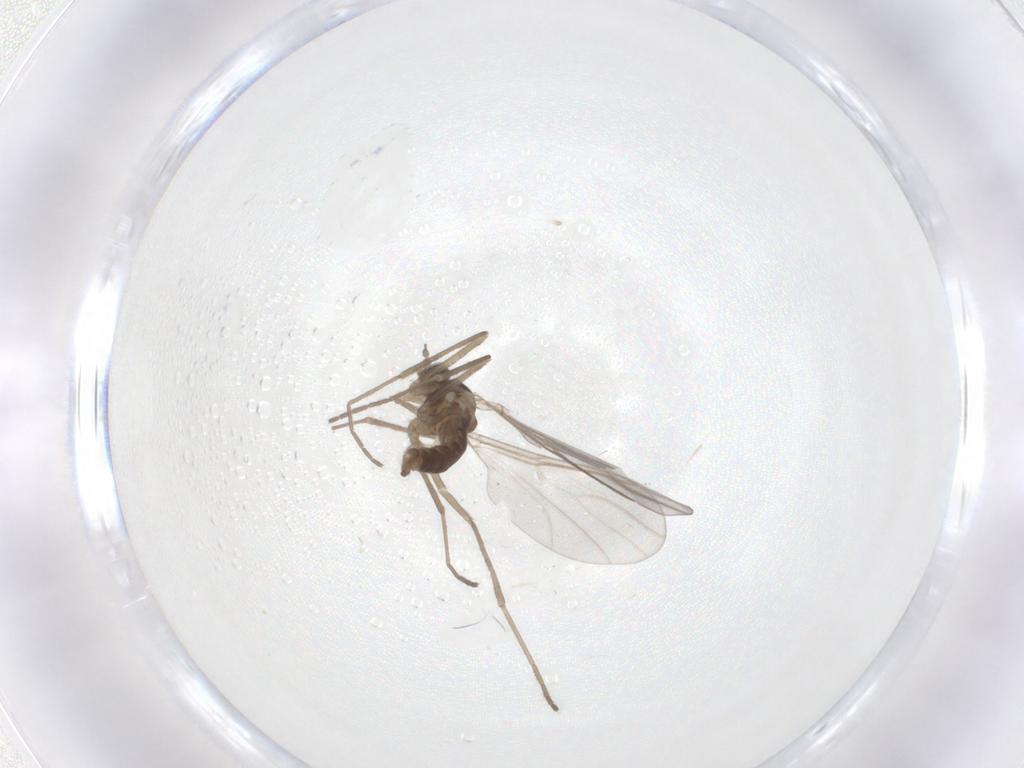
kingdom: Animalia
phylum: Arthropoda
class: Insecta
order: Diptera
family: Cecidomyiidae
